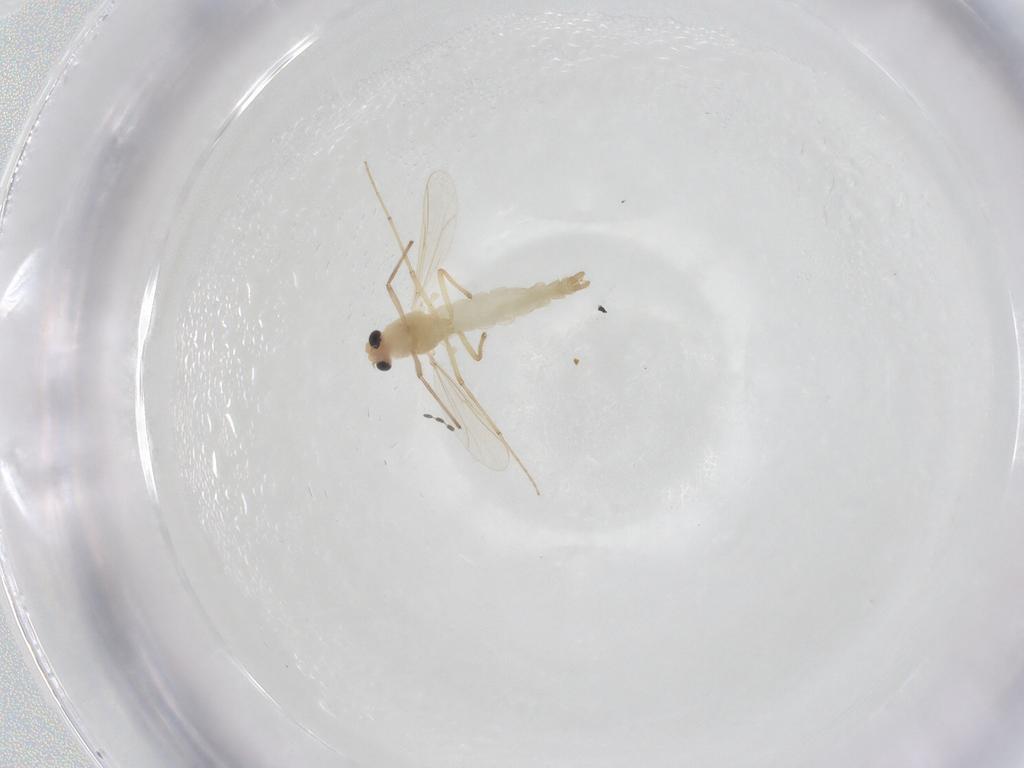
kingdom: Animalia
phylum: Arthropoda
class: Insecta
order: Diptera
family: Chironomidae
